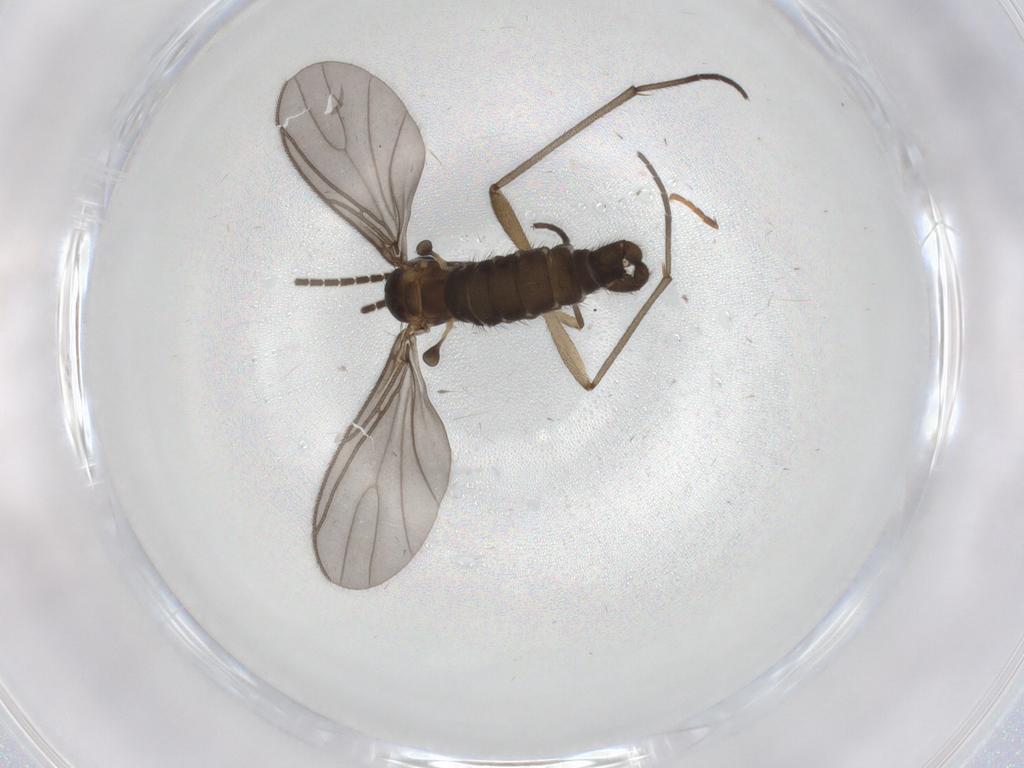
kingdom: Animalia
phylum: Arthropoda
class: Insecta
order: Diptera
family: Sciaridae
